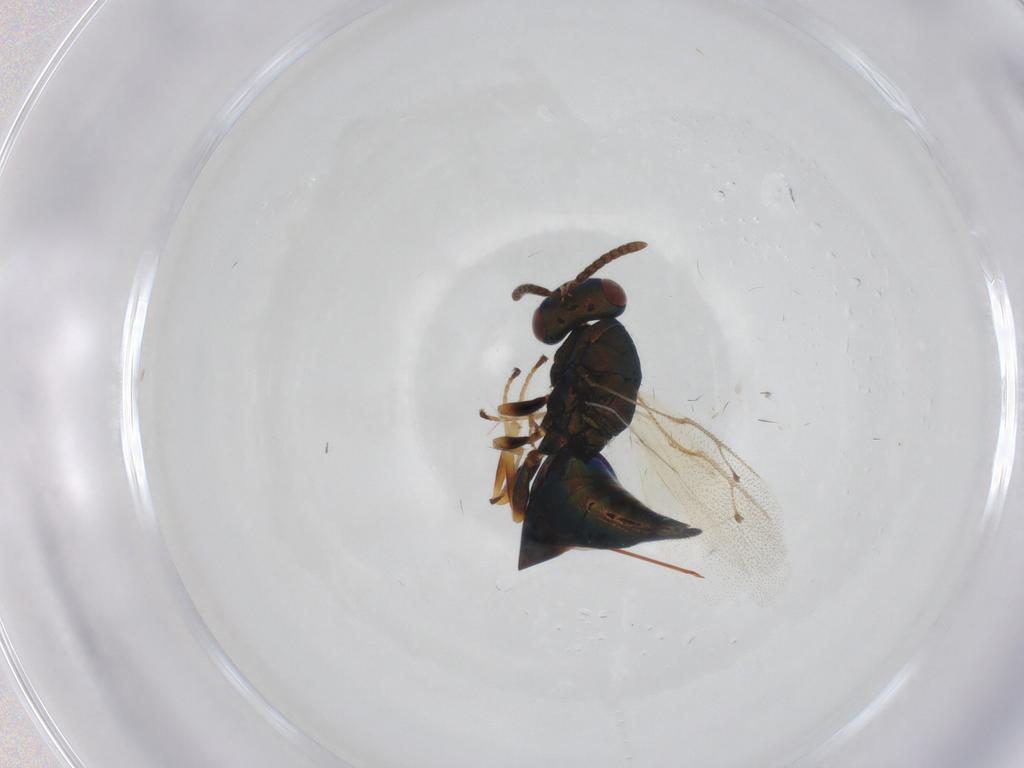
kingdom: Animalia
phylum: Arthropoda
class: Insecta
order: Hymenoptera
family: Pteromalidae
